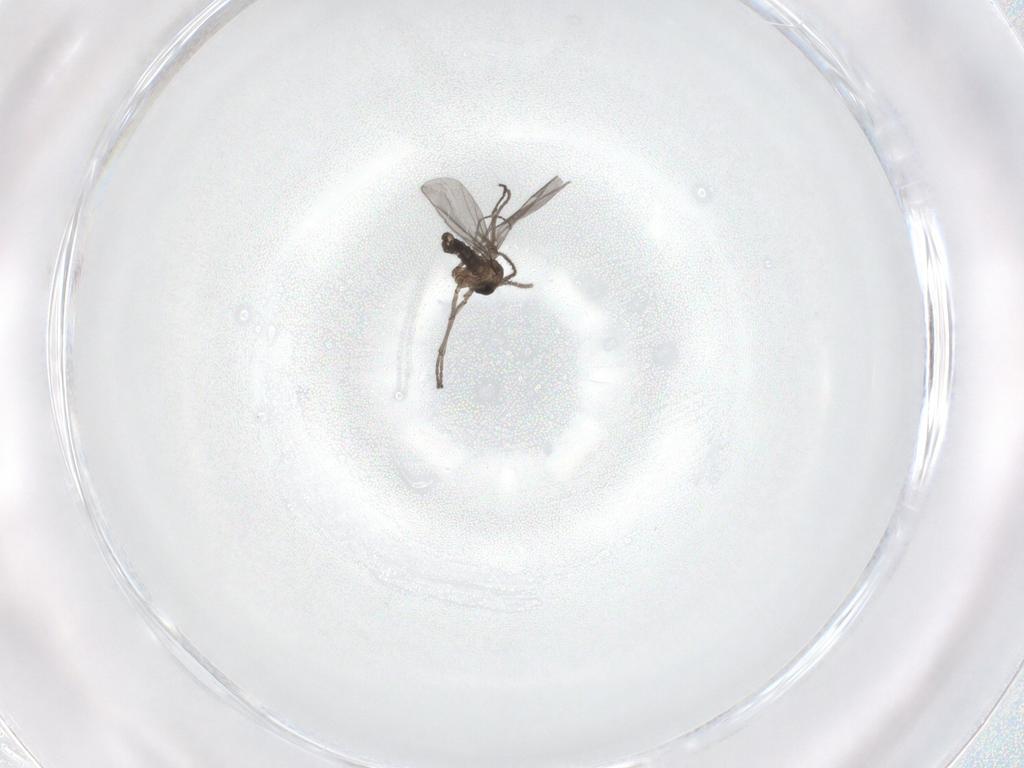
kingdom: Animalia
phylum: Arthropoda
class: Insecta
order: Diptera
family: Sciaridae
